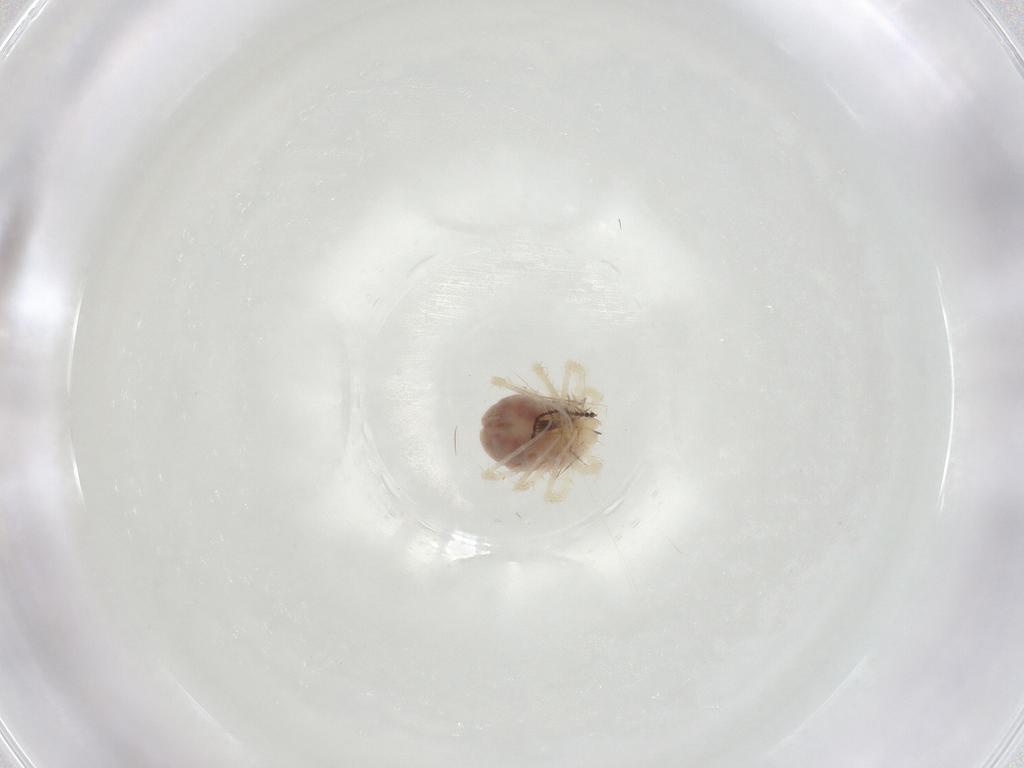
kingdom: Animalia
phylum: Arthropoda
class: Arachnida
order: Trombidiformes
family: Anystidae
